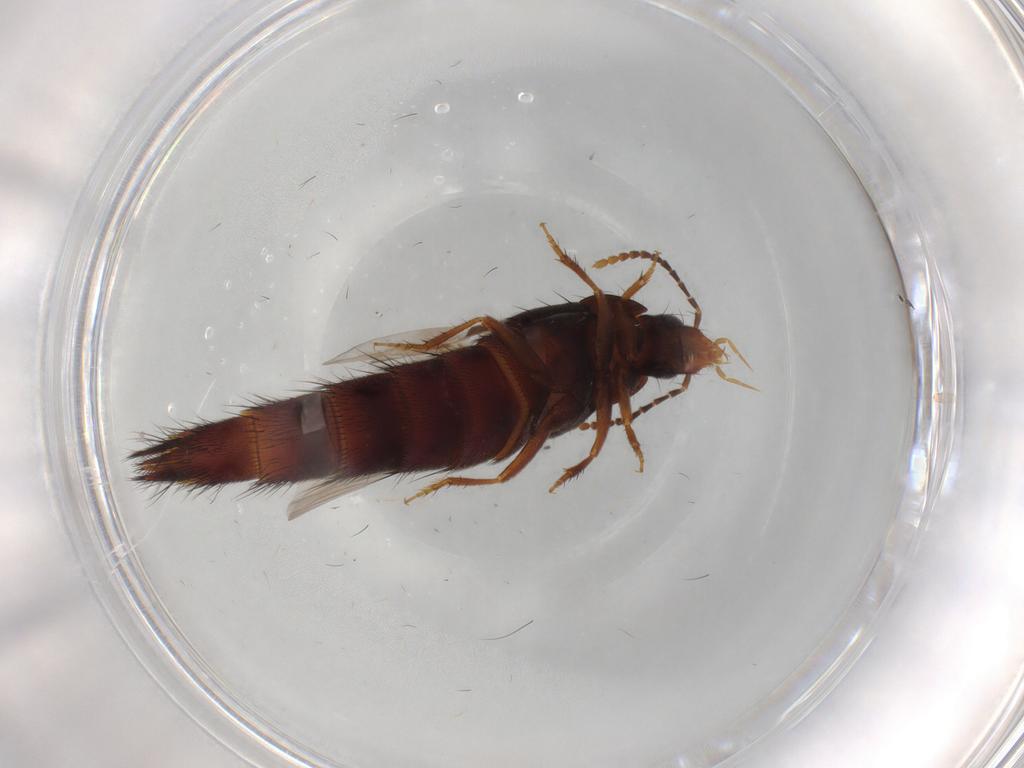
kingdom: Animalia
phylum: Arthropoda
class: Insecta
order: Coleoptera
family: Staphylinidae
